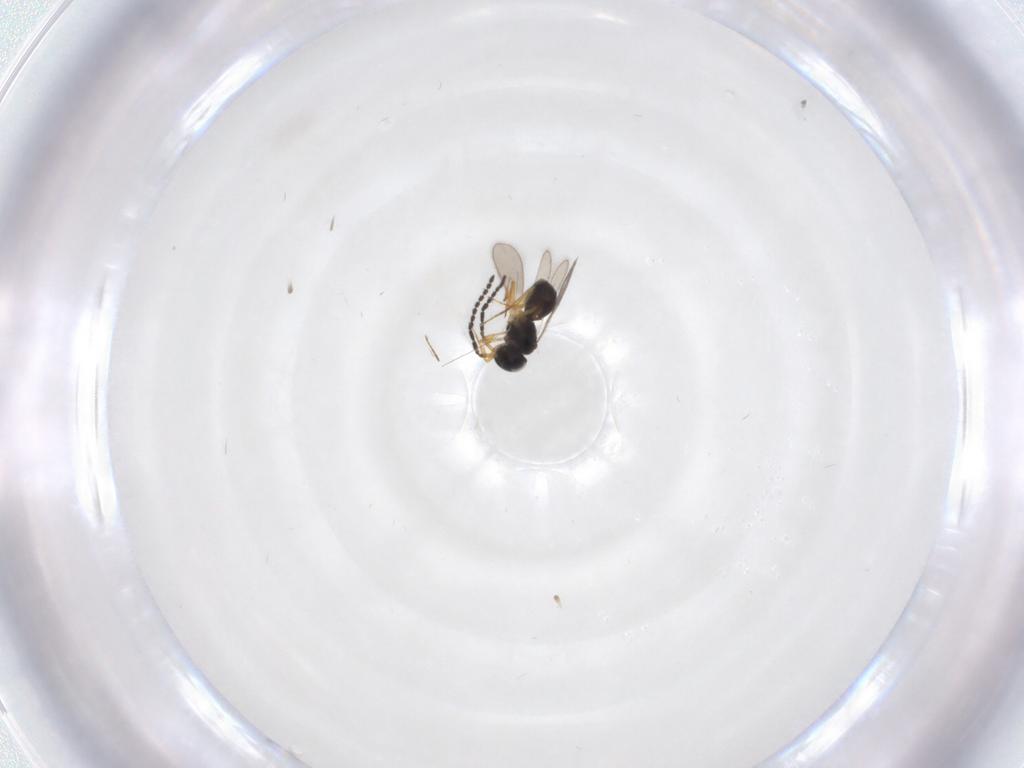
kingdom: Animalia
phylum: Arthropoda
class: Insecta
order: Hymenoptera
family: Scelionidae
